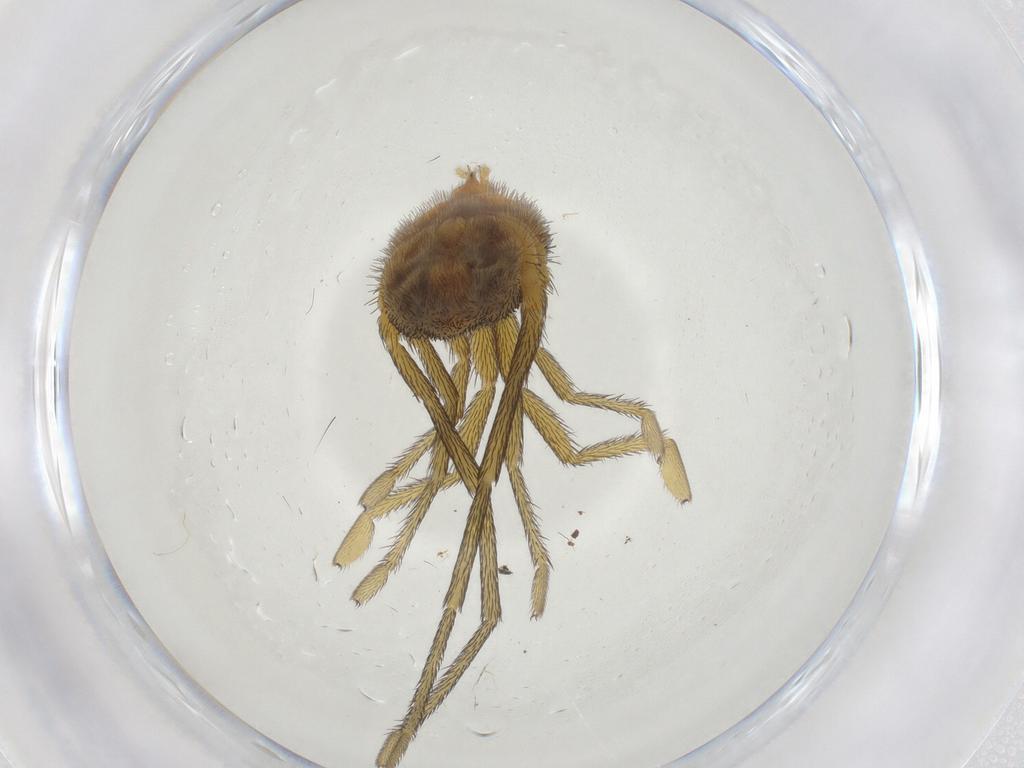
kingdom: Animalia
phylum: Arthropoda
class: Arachnida
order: Trombidiformes
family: Erythraeidae
